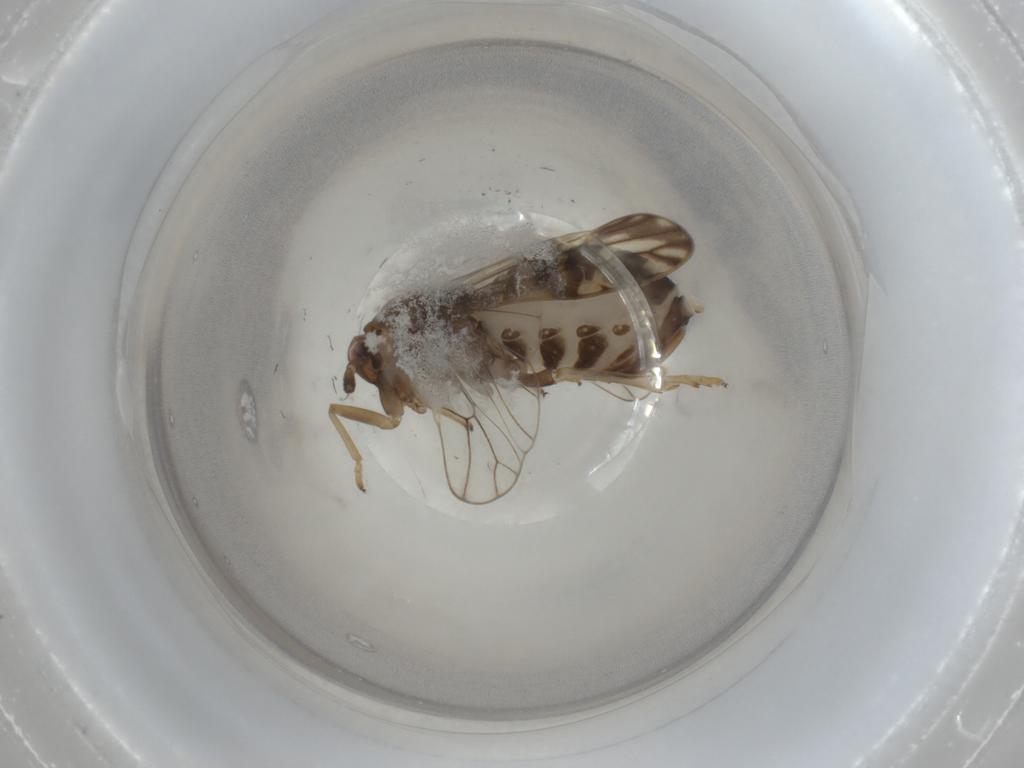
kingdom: Animalia
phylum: Arthropoda
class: Insecta
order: Hemiptera
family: Delphacidae
